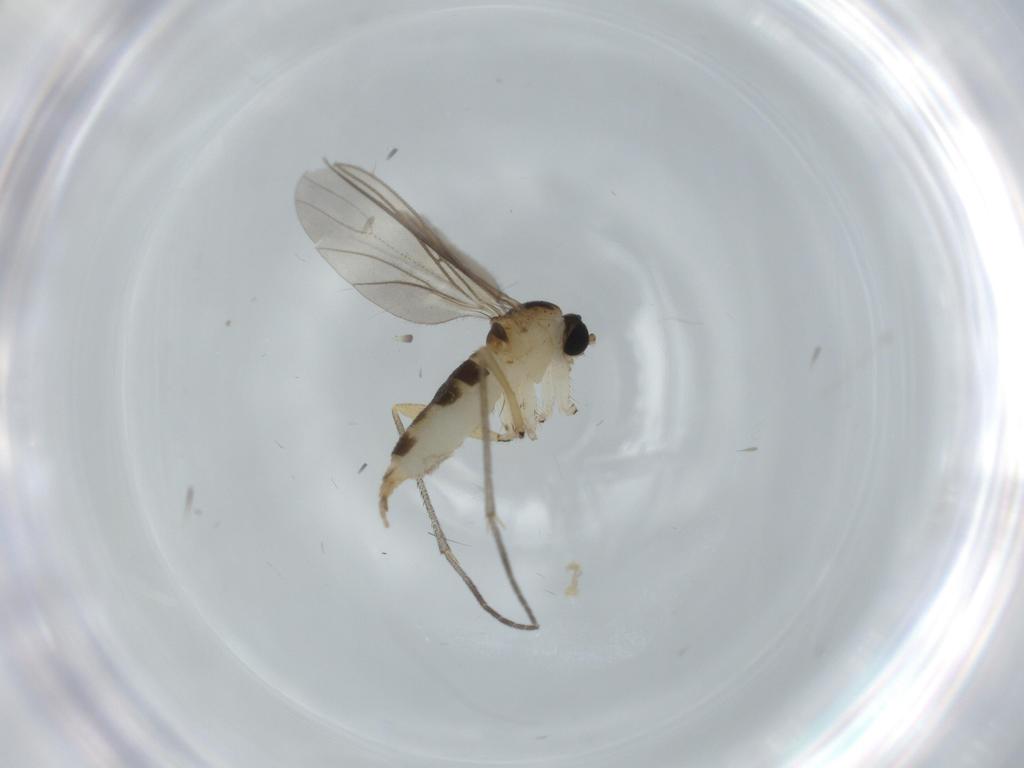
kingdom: Animalia
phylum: Arthropoda
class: Insecta
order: Diptera
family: Sciaridae
